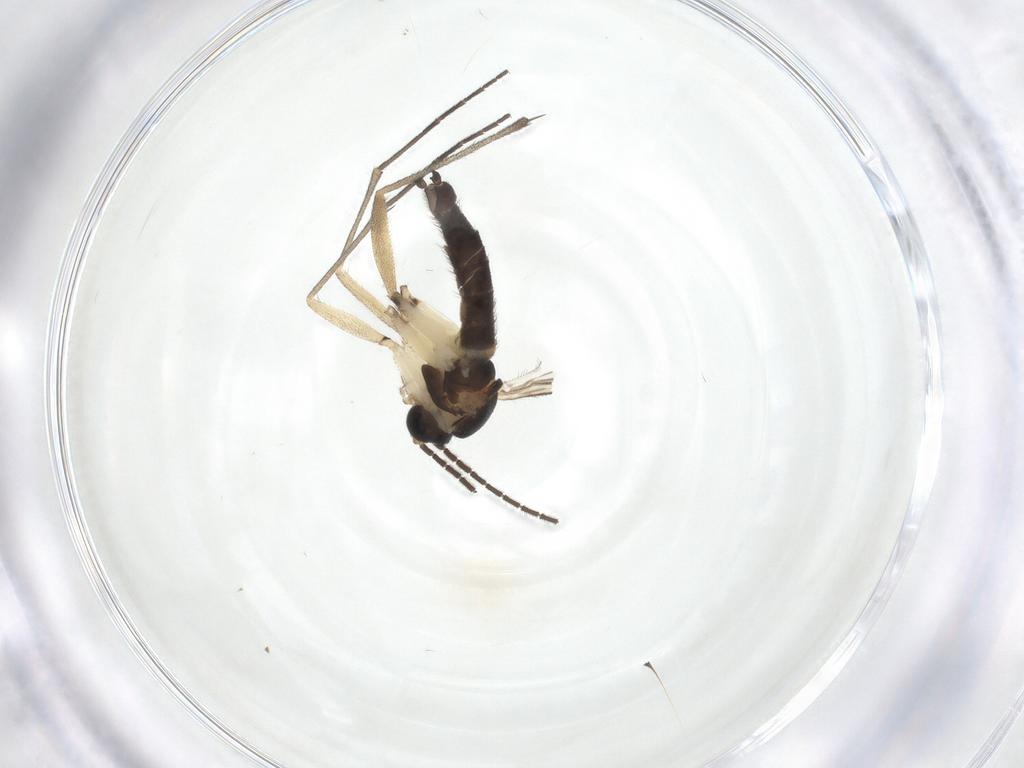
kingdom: Animalia
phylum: Arthropoda
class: Insecta
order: Diptera
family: Sciaridae
